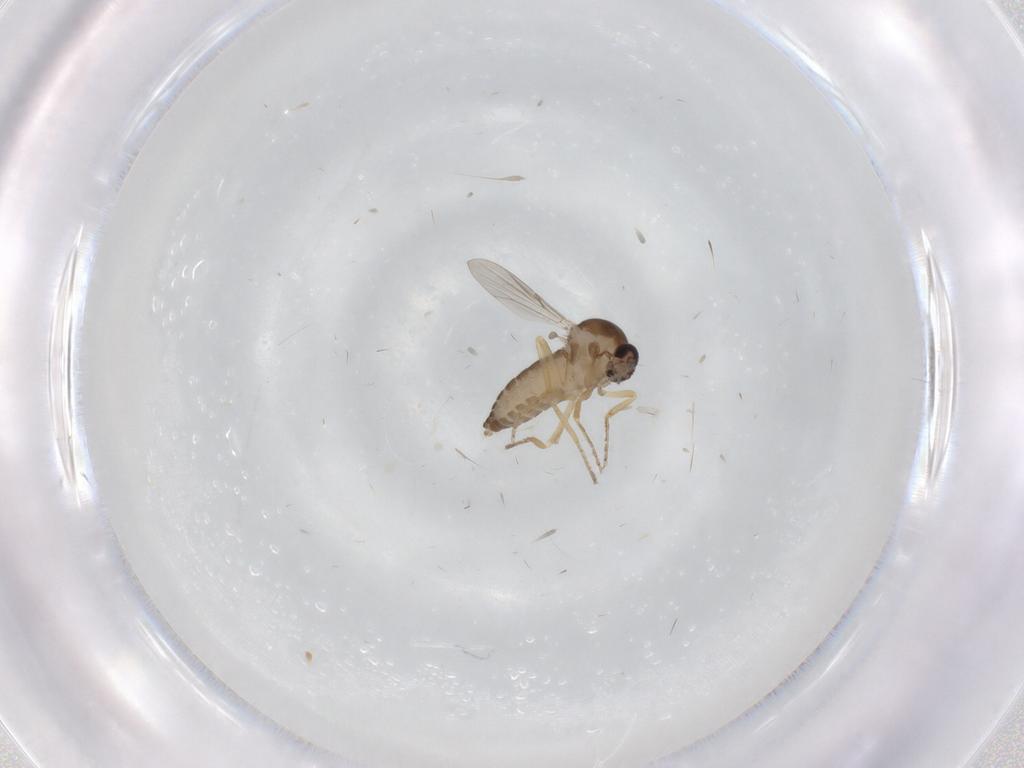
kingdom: Animalia
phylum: Arthropoda
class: Insecta
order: Diptera
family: Ceratopogonidae
